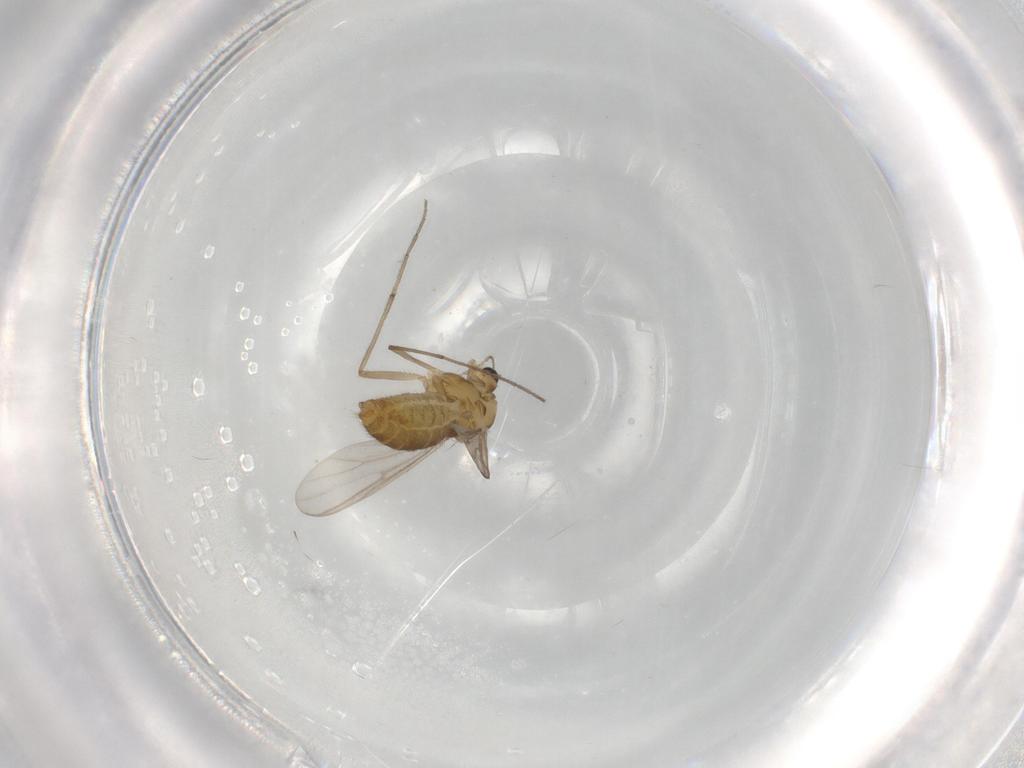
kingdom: Animalia
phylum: Arthropoda
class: Insecta
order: Diptera
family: Chironomidae
